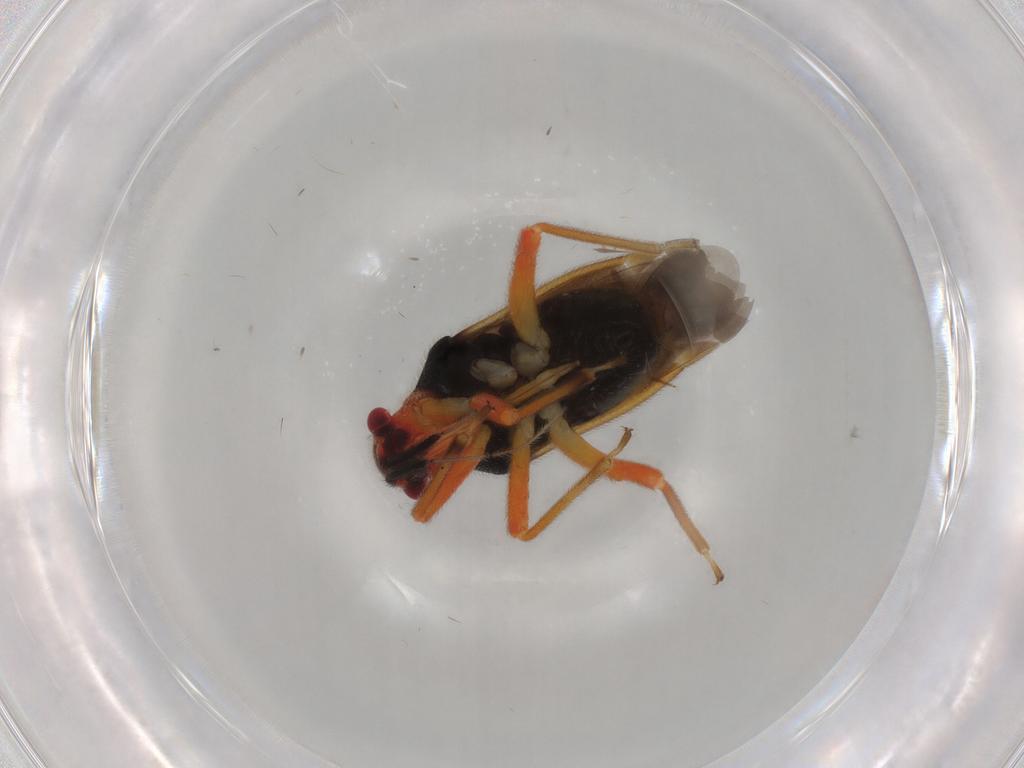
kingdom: Animalia
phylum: Arthropoda
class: Insecta
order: Hemiptera
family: Miridae
